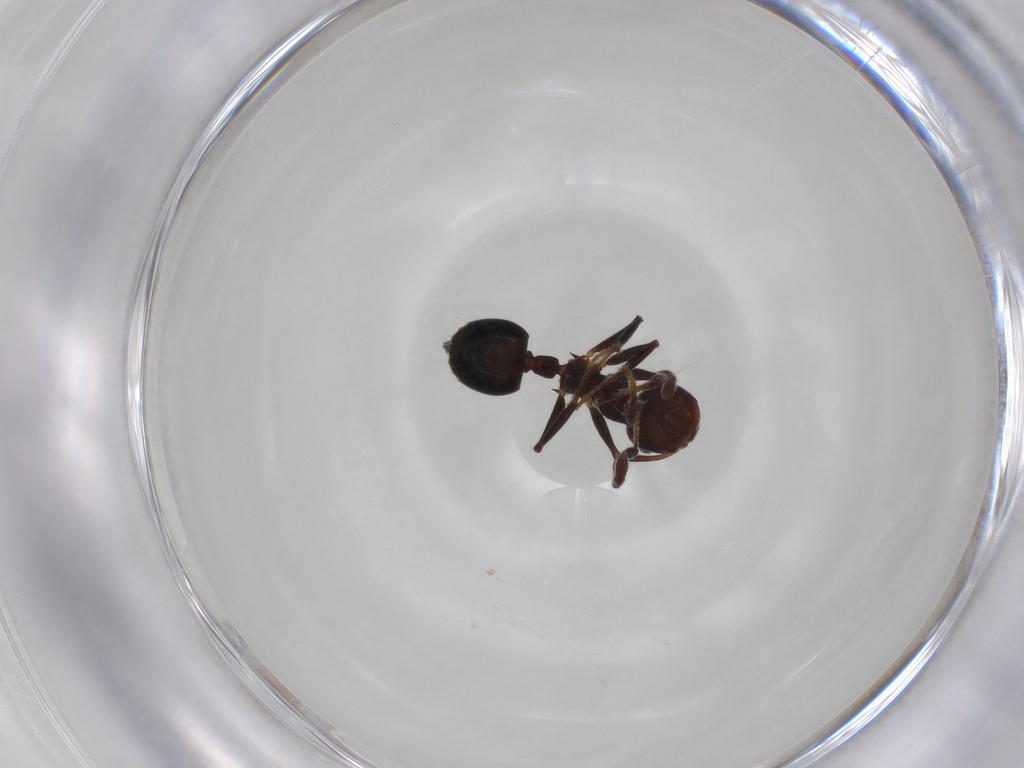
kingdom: Animalia
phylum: Arthropoda
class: Insecta
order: Hymenoptera
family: Formicidae
